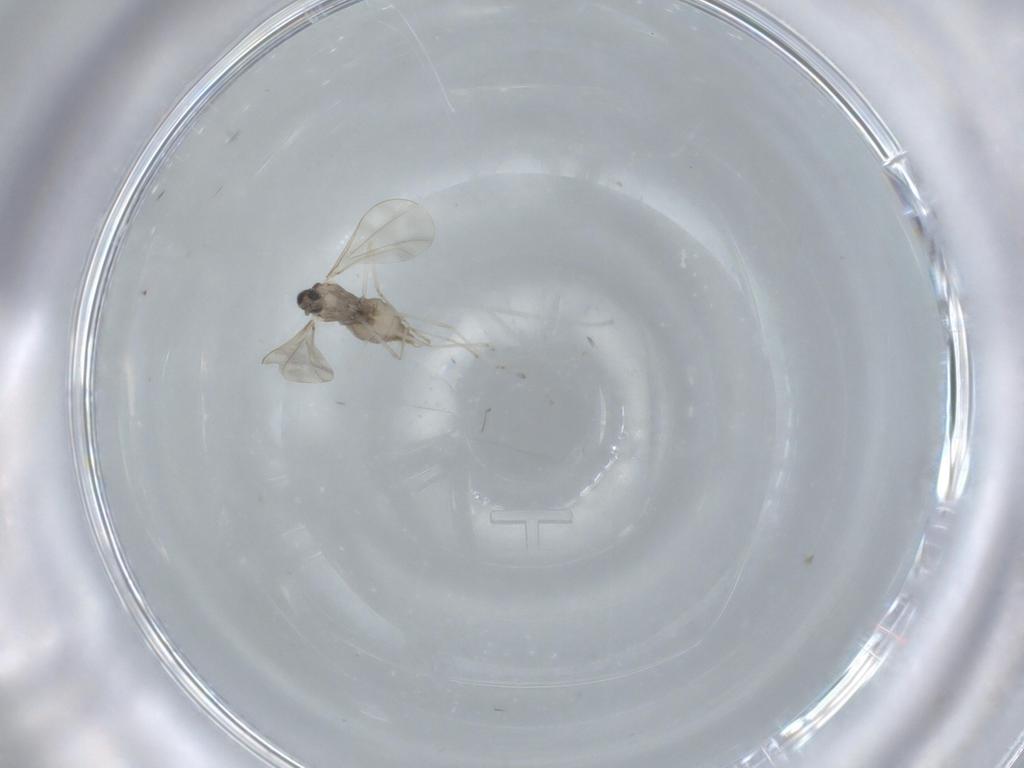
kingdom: Animalia
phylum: Arthropoda
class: Insecta
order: Diptera
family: Cecidomyiidae
